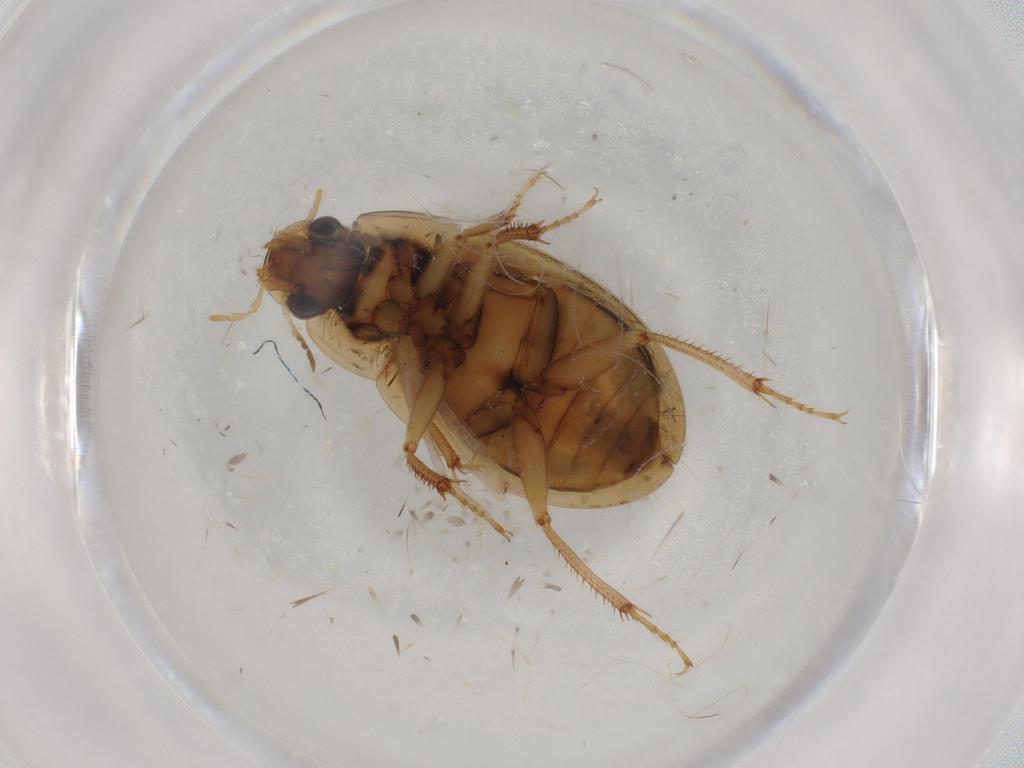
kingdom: Animalia
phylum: Arthropoda
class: Insecta
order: Coleoptera
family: Hydrophilidae
